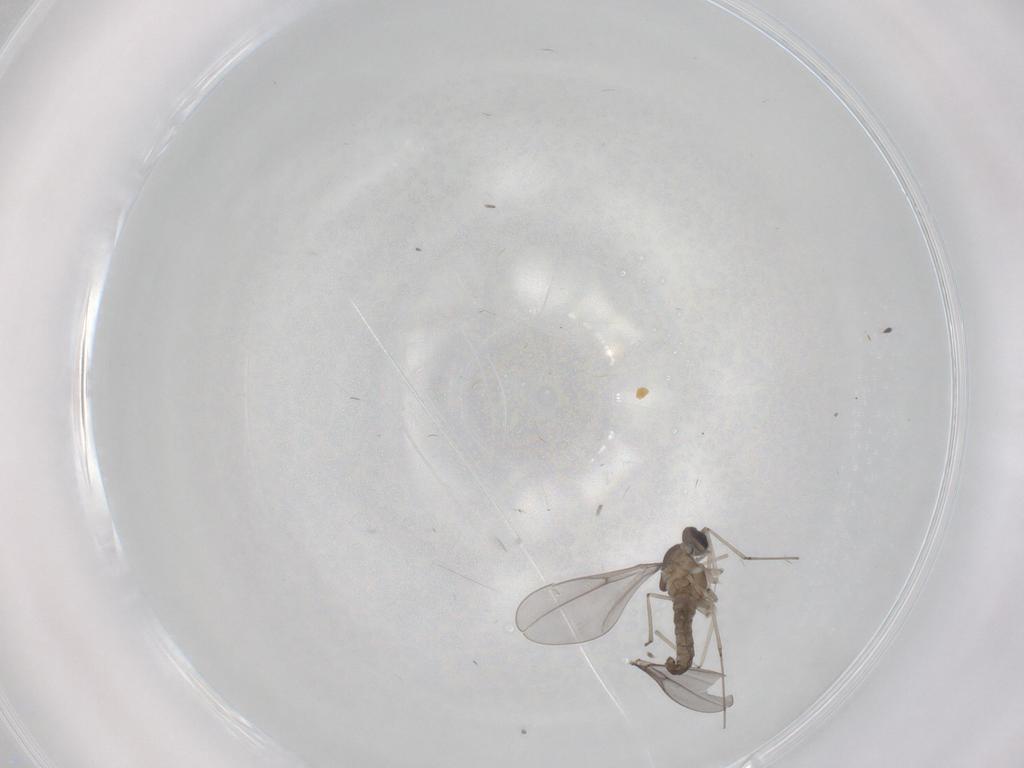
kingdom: Animalia
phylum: Arthropoda
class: Insecta
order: Diptera
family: Cecidomyiidae
